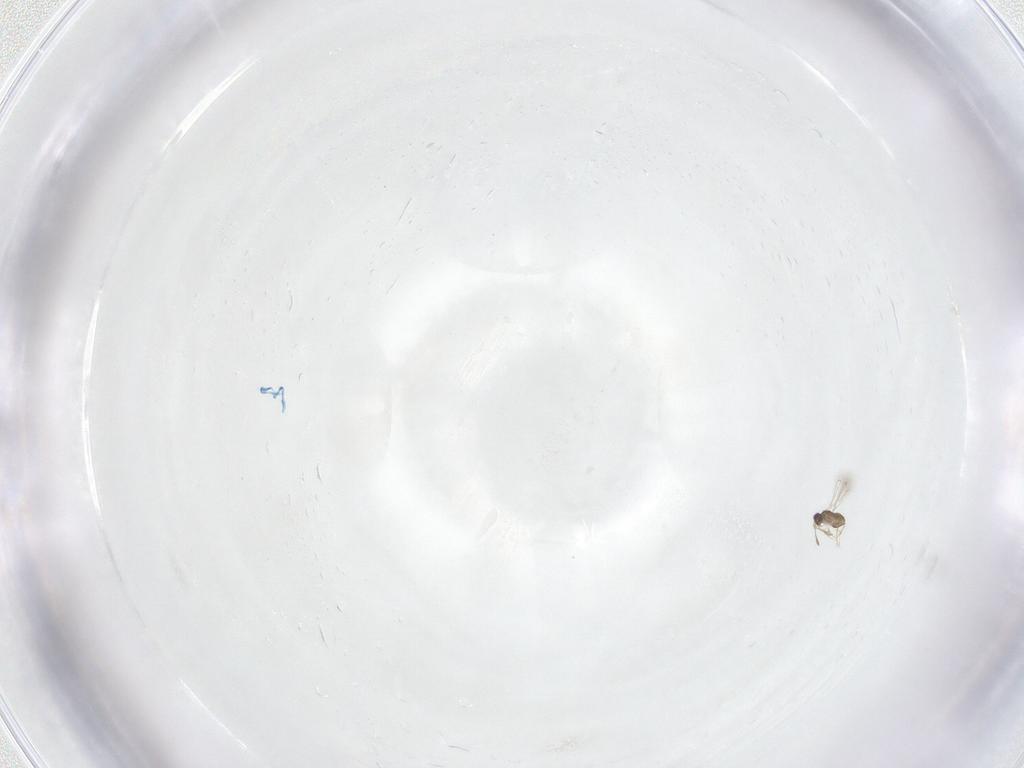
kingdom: Animalia
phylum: Arthropoda
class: Insecta
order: Hymenoptera
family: Mymaridae
